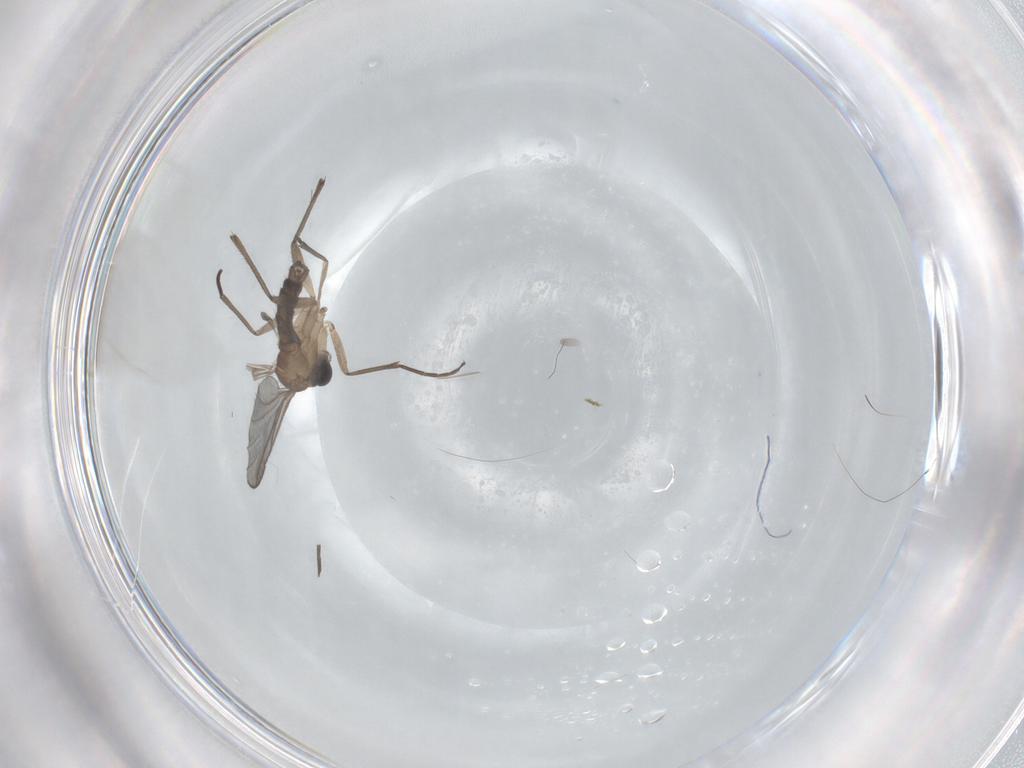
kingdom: Animalia
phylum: Arthropoda
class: Insecta
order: Diptera
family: Sciaridae
